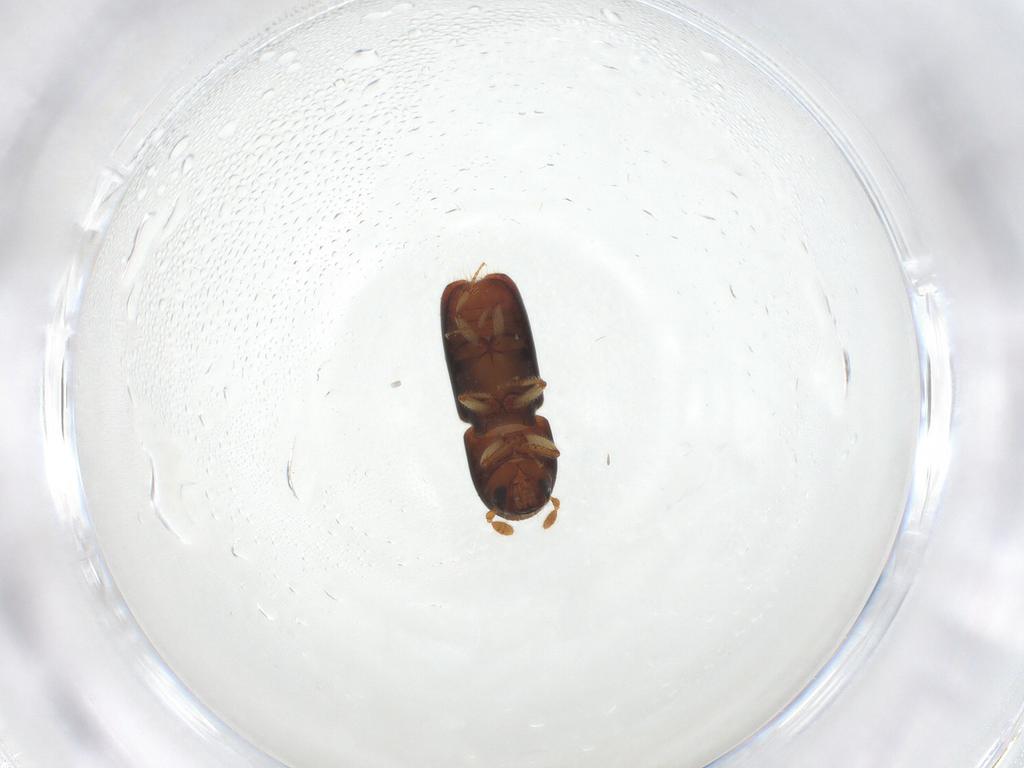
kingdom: Animalia
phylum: Arthropoda
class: Insecta
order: Coleoptera
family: Curculionidae
